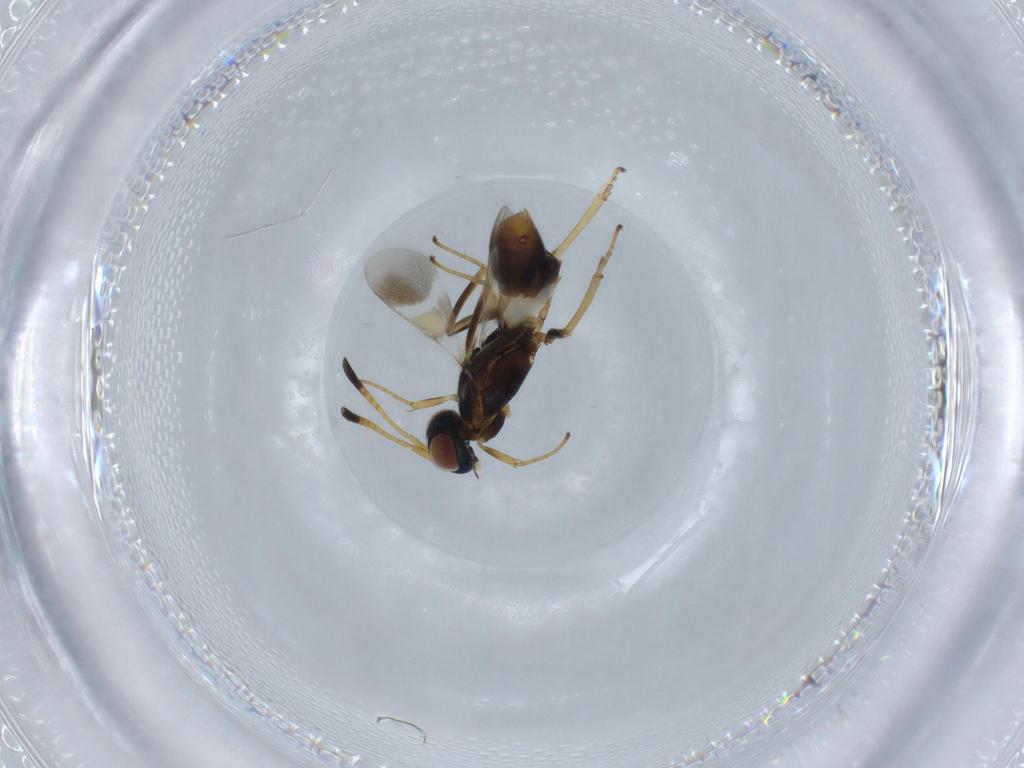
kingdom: Animalia
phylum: Arthropoda
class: Insecta
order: Hymenoptera
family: Eupelmidae
